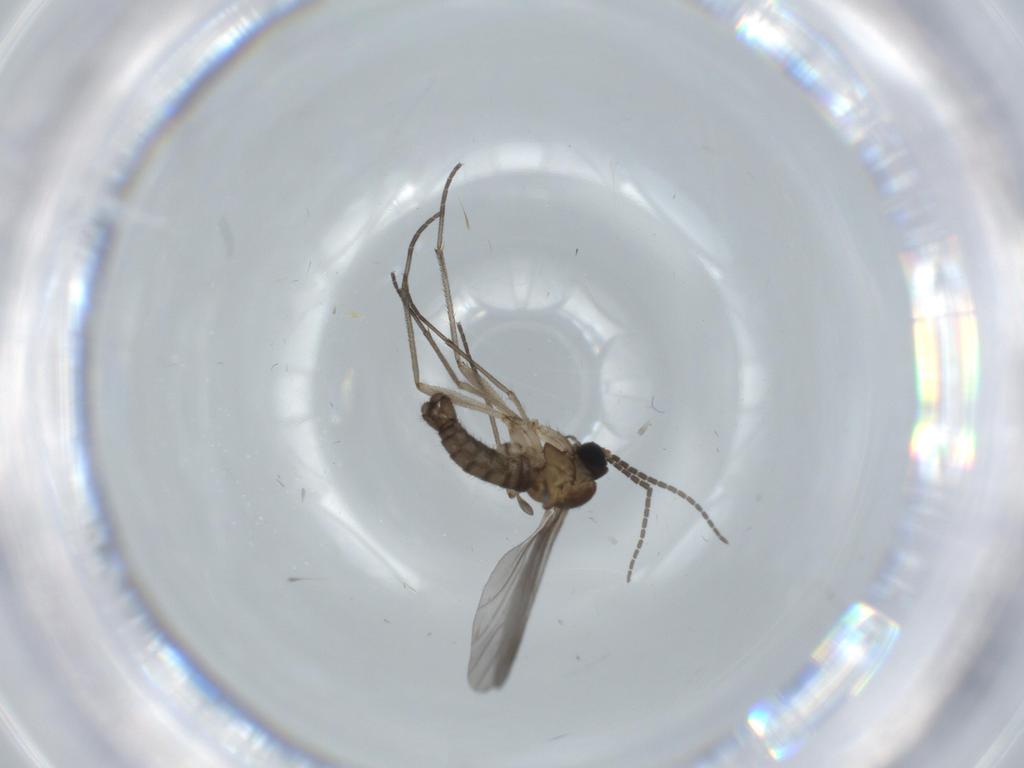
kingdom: Animalia
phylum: Arthropoda
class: Insecta
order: Diptera
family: Sciaridae
